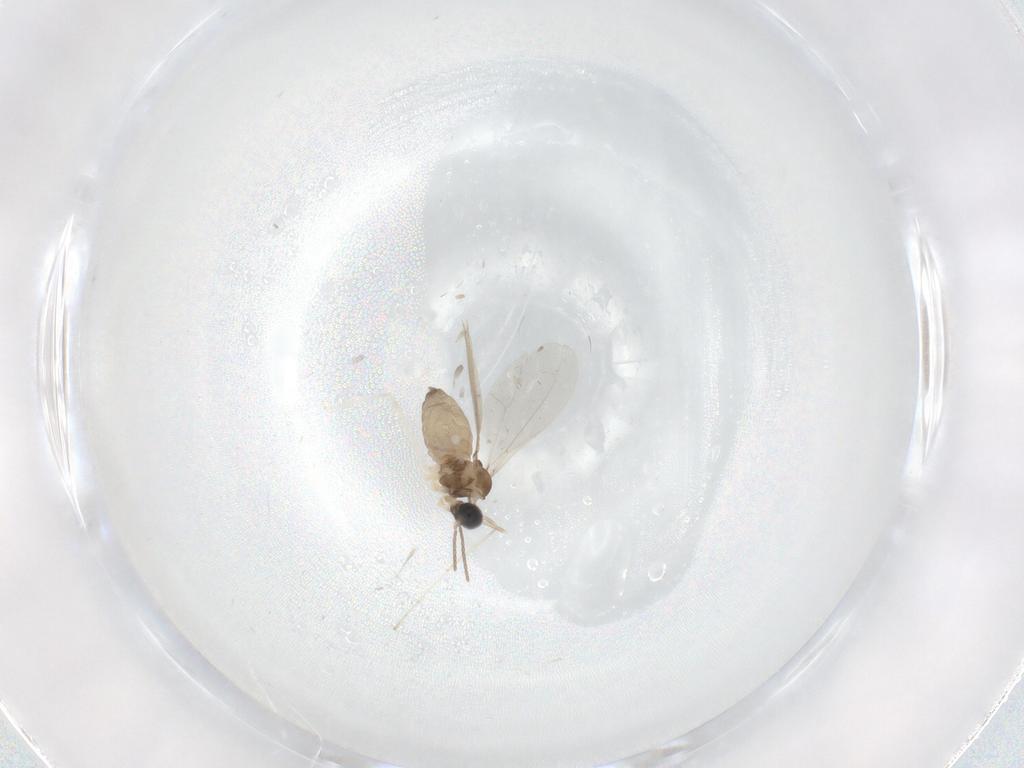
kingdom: Animalia
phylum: Arthropoda
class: Insecta
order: Diptera
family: Cecidomyiidae
